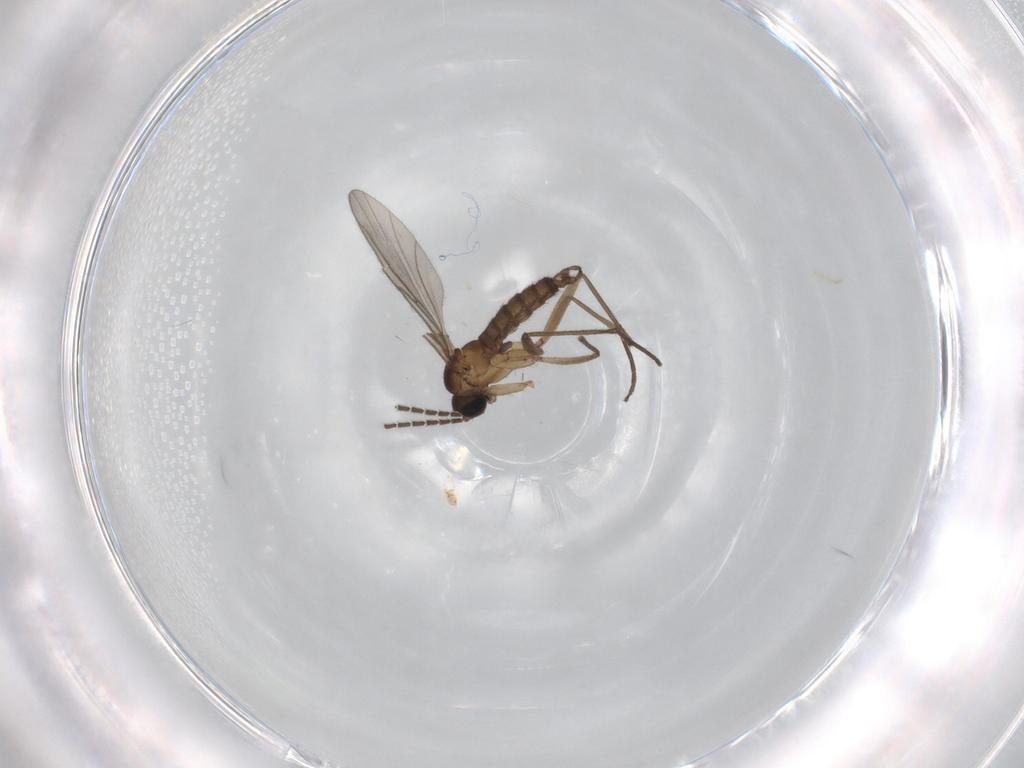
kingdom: Animalia
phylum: Arthropoda
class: Insecta
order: Diptera
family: Sciaridae
